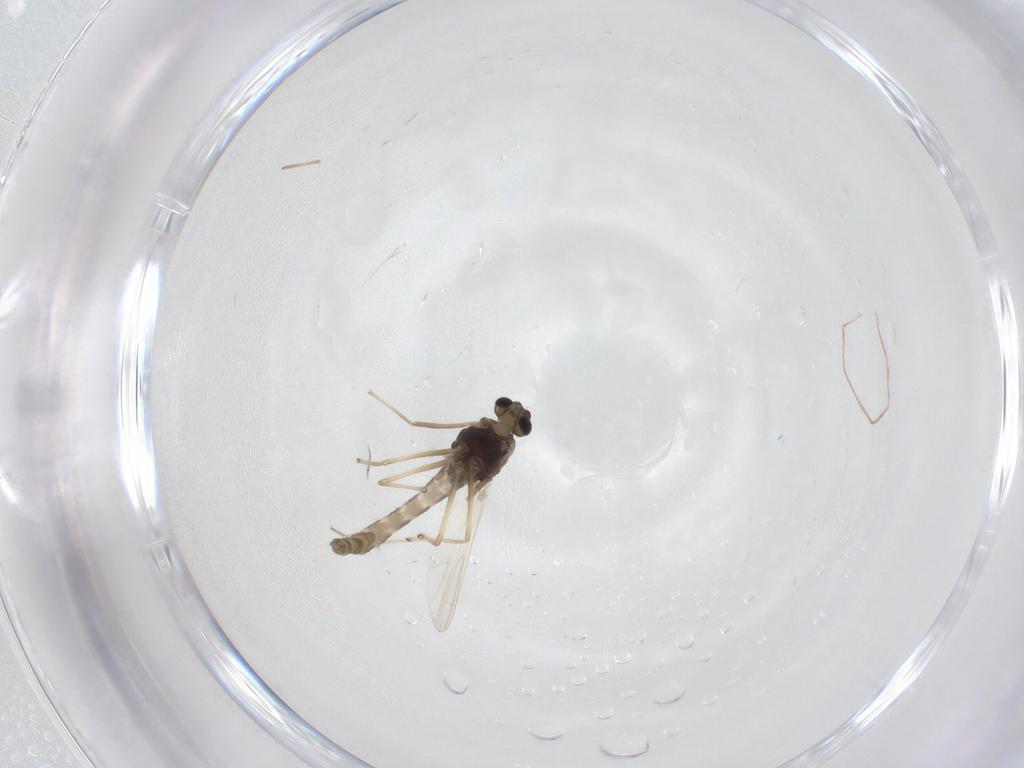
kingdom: Animalia
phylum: Arthropoda
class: Insecta
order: Diptera
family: Chironomidae
